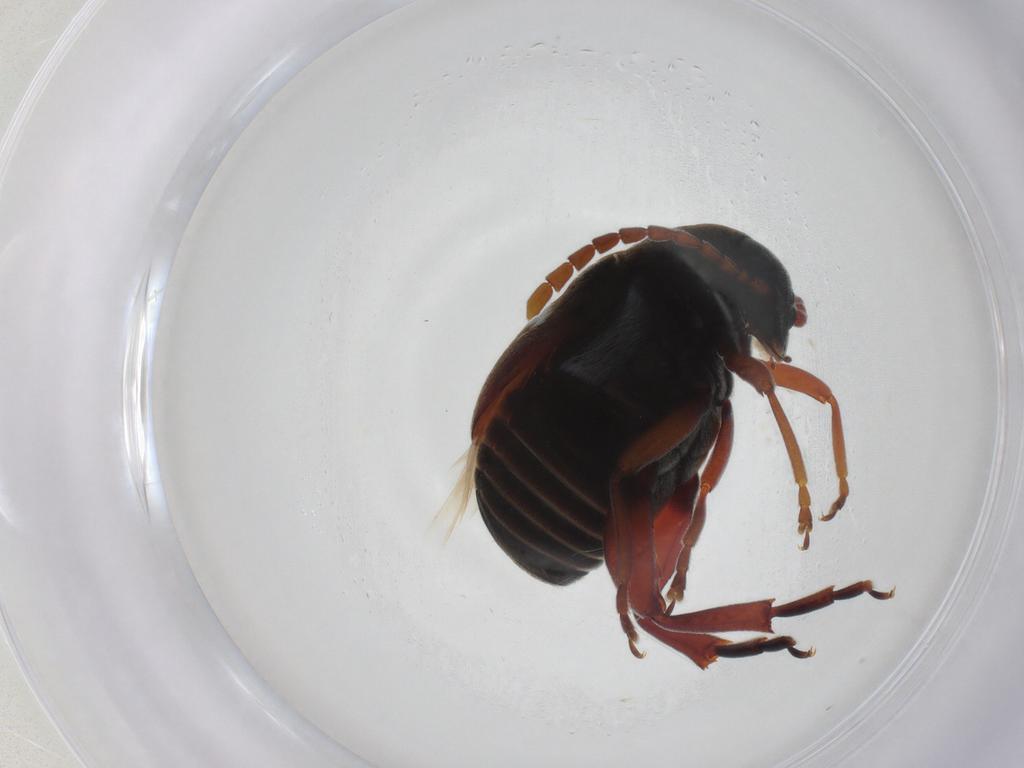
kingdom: Animalia
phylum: Arthropoda
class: Insecta
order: Coleoptera
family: Chrysomelidae
